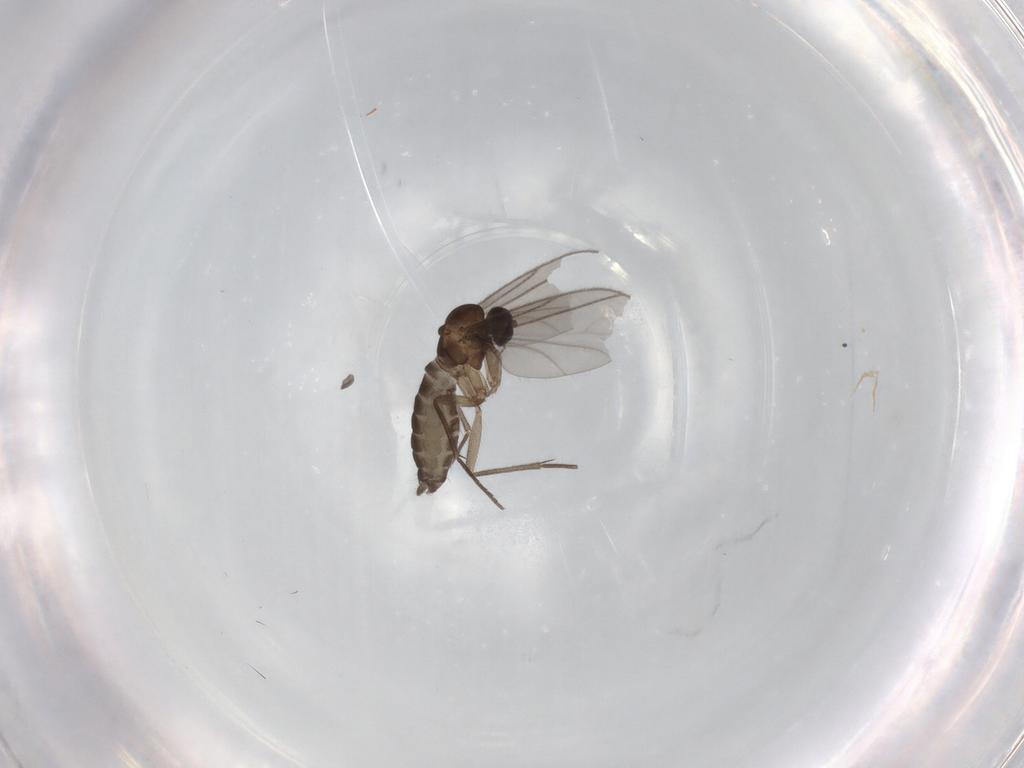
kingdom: Animalia
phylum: Arthropoda
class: Insecta
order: Diptera
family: Sciaridae
